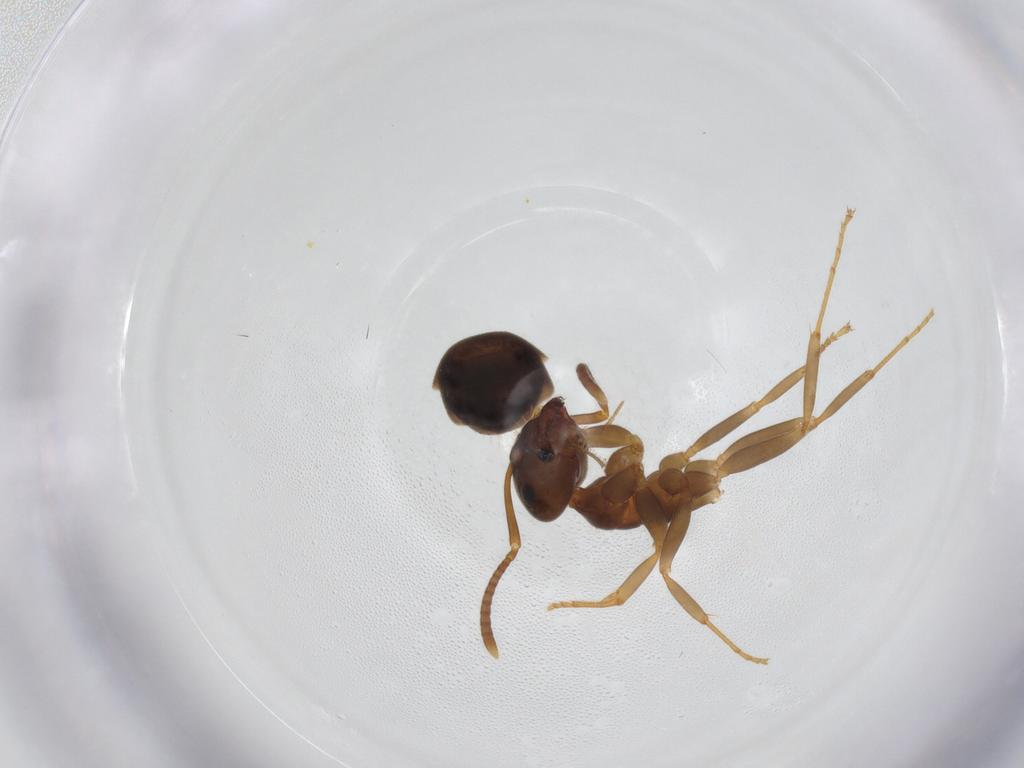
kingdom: Animalia
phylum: Arthropoda
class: Insecta
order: Hymenoptera
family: Formicidae
